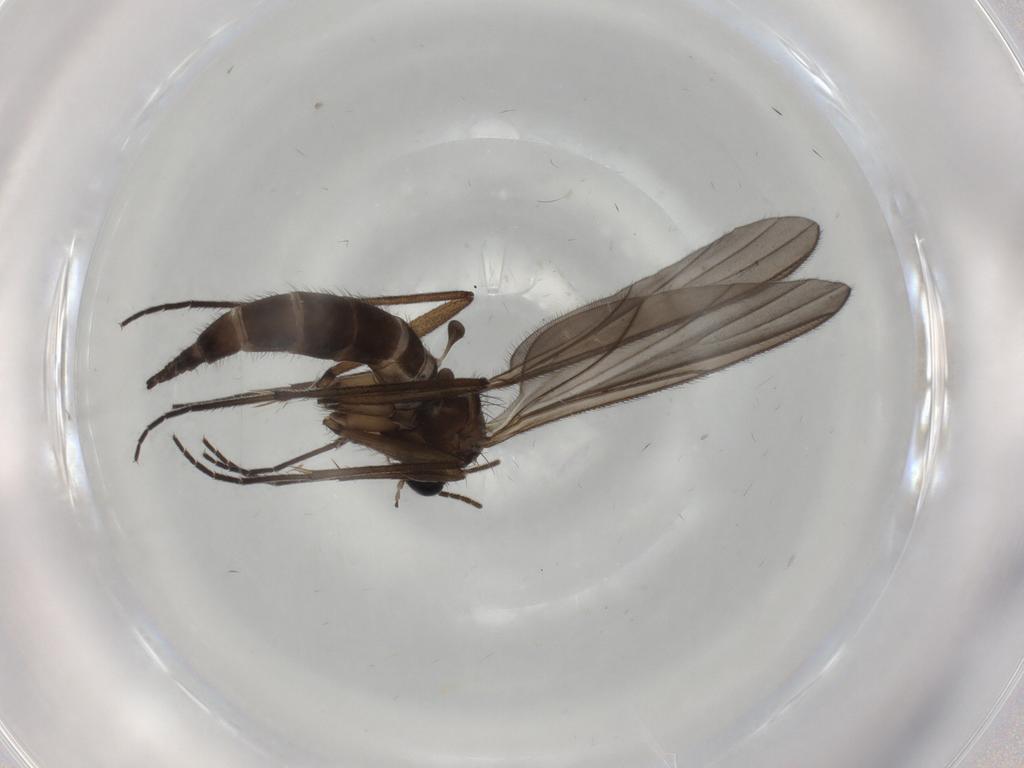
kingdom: Animalia
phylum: Arthropoda
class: Insecta
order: Diptera
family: Sciaridae
